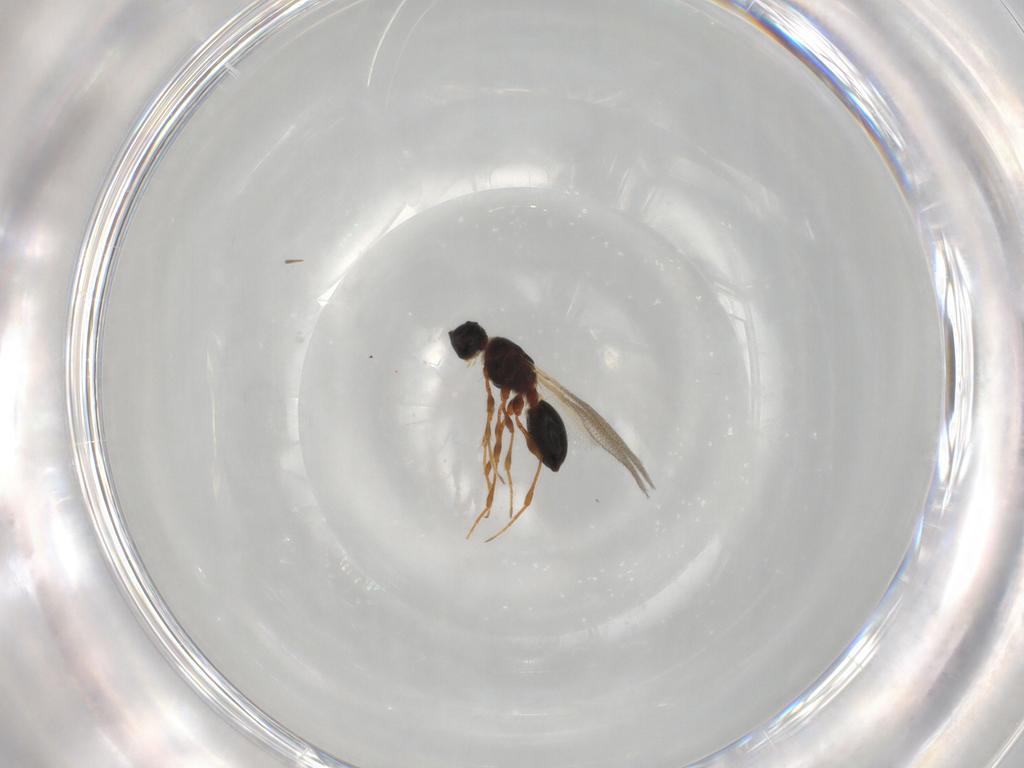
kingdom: Animalia
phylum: Arthropoda
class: Insecta
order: Hymenoptera
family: Diapriidae
